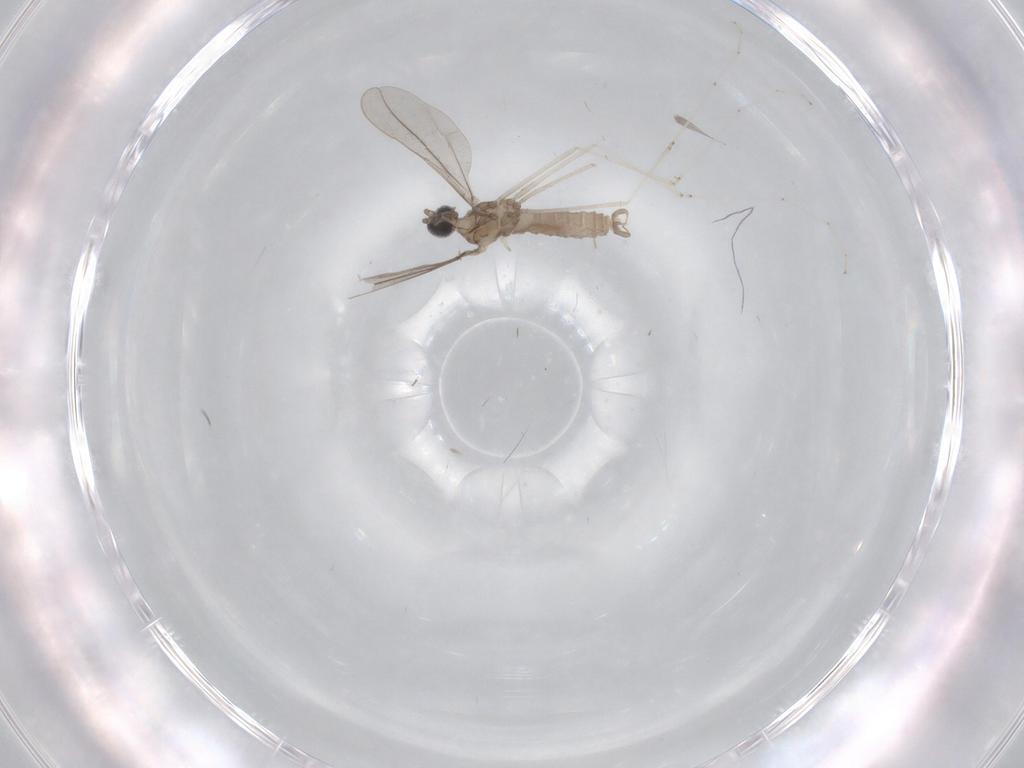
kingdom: Animalia
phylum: Arthropoda
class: Insecta
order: Diptera
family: Cecidomyiidae
